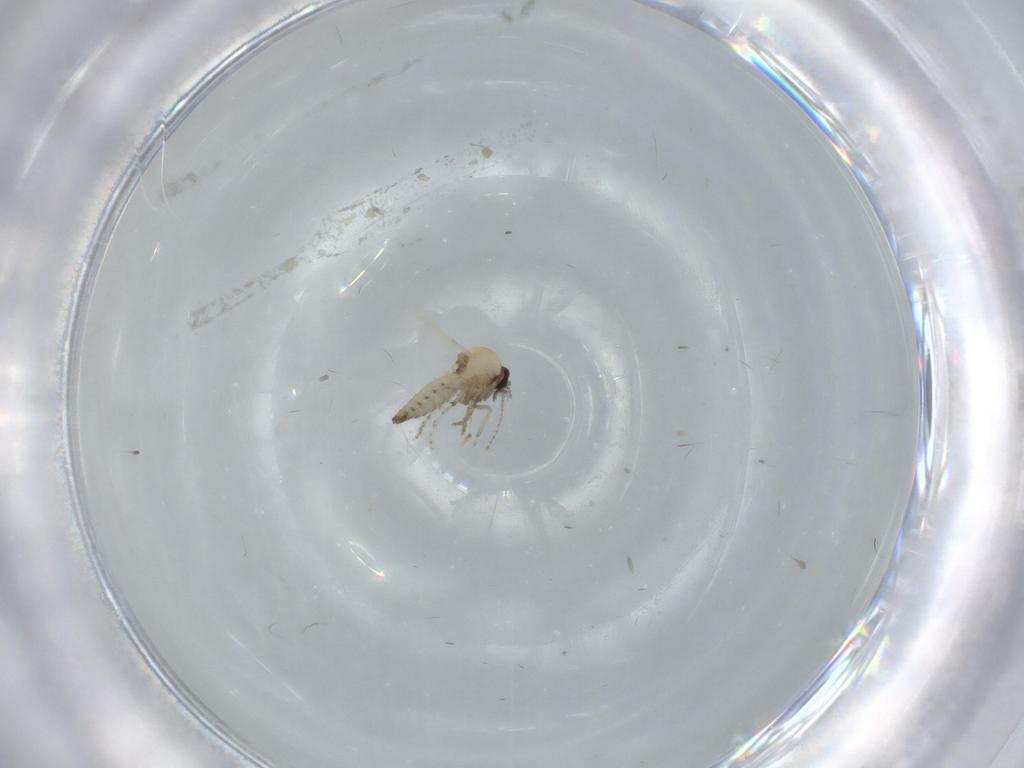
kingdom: Animalia
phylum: Arthropoda
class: Insecta
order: Diptera
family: Ceratopogonidae
